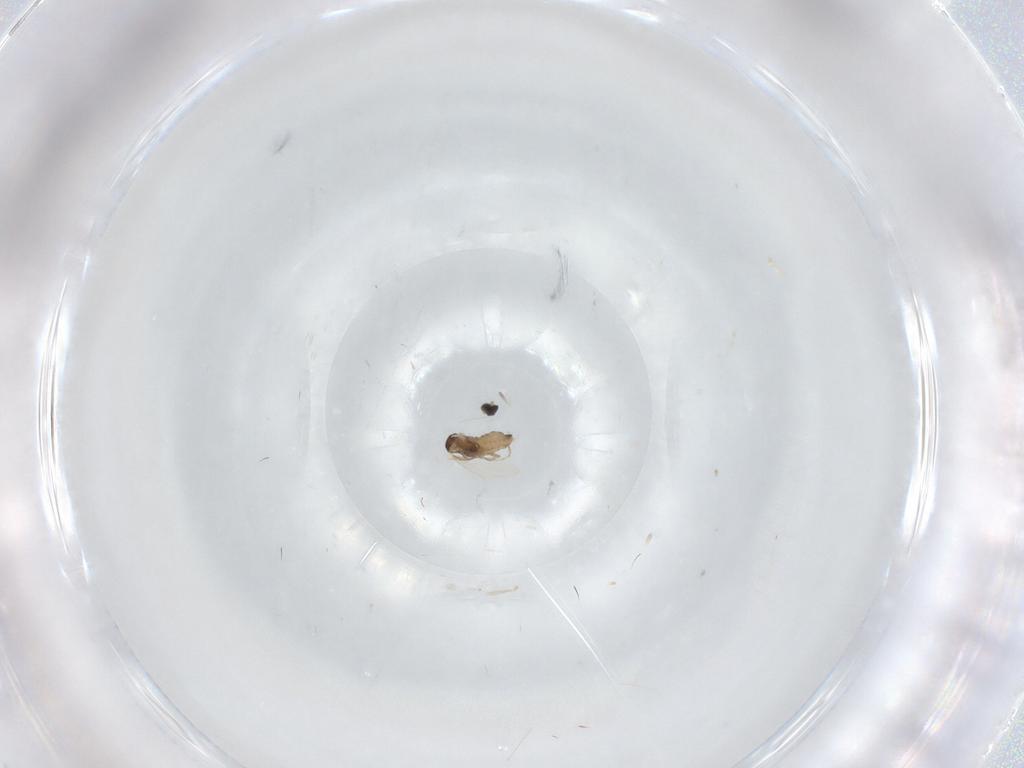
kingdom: Animalia
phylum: Arthropoda
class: Insecta
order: Diptera
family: Cecidomyiidae
